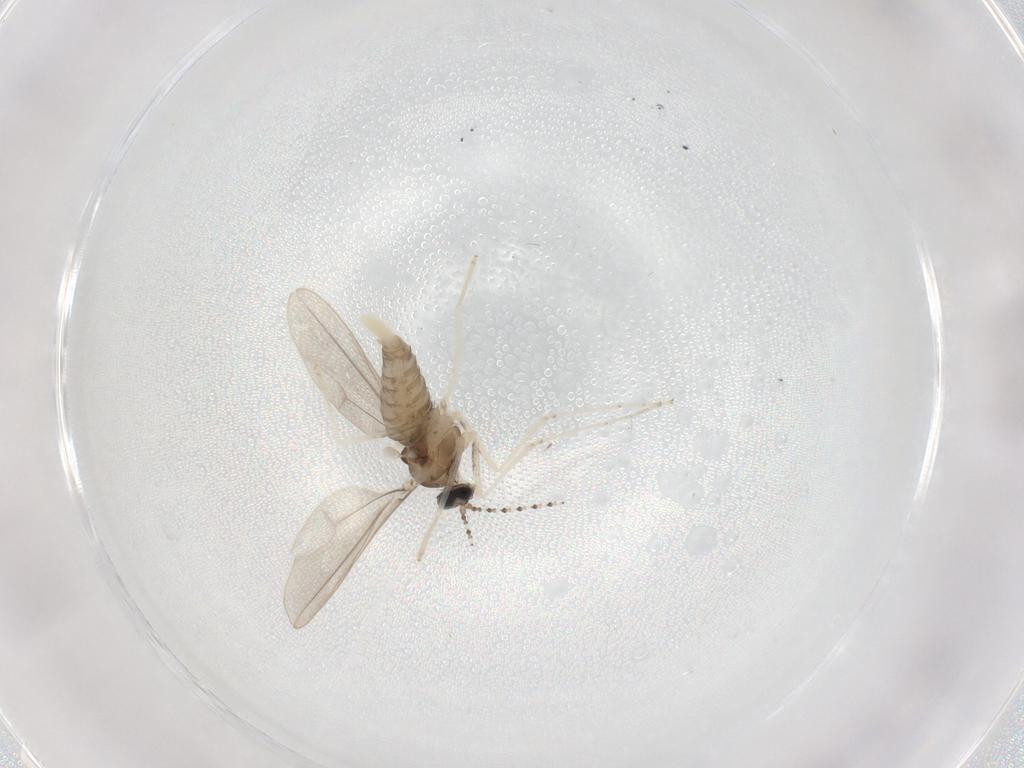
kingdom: Animalia
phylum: Arthropoda
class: Insecta
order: Diptera
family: Cecidomyiidae
